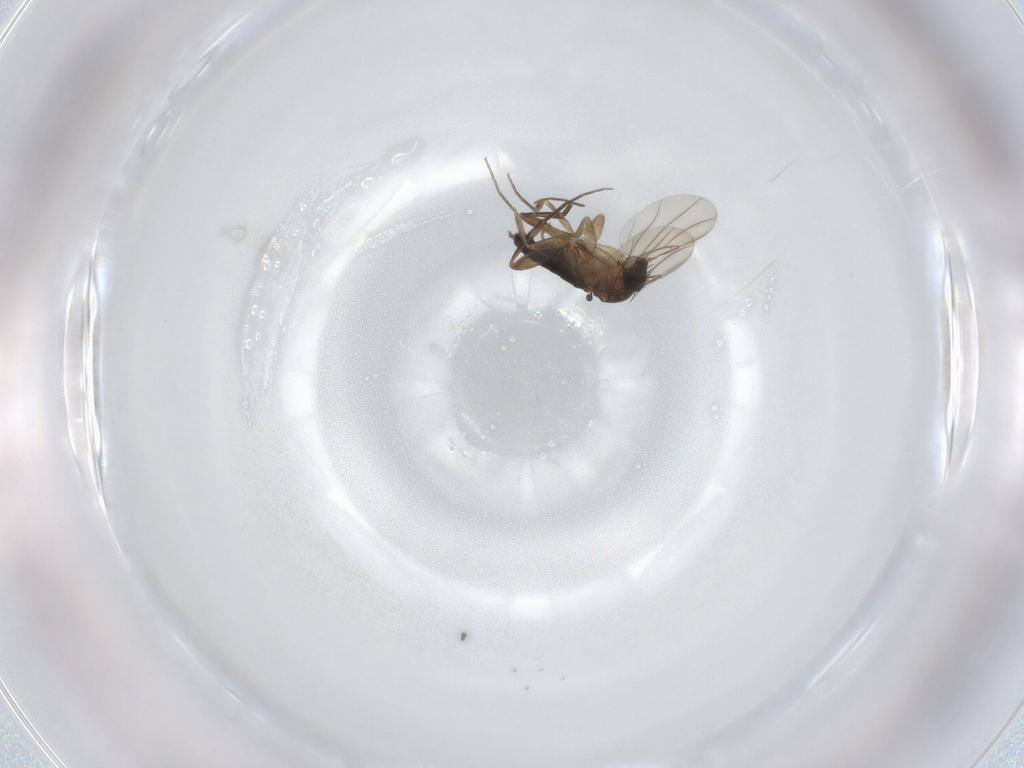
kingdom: Animalia
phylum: Arthropoda
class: Insecta
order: Diptera
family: Phoridae
